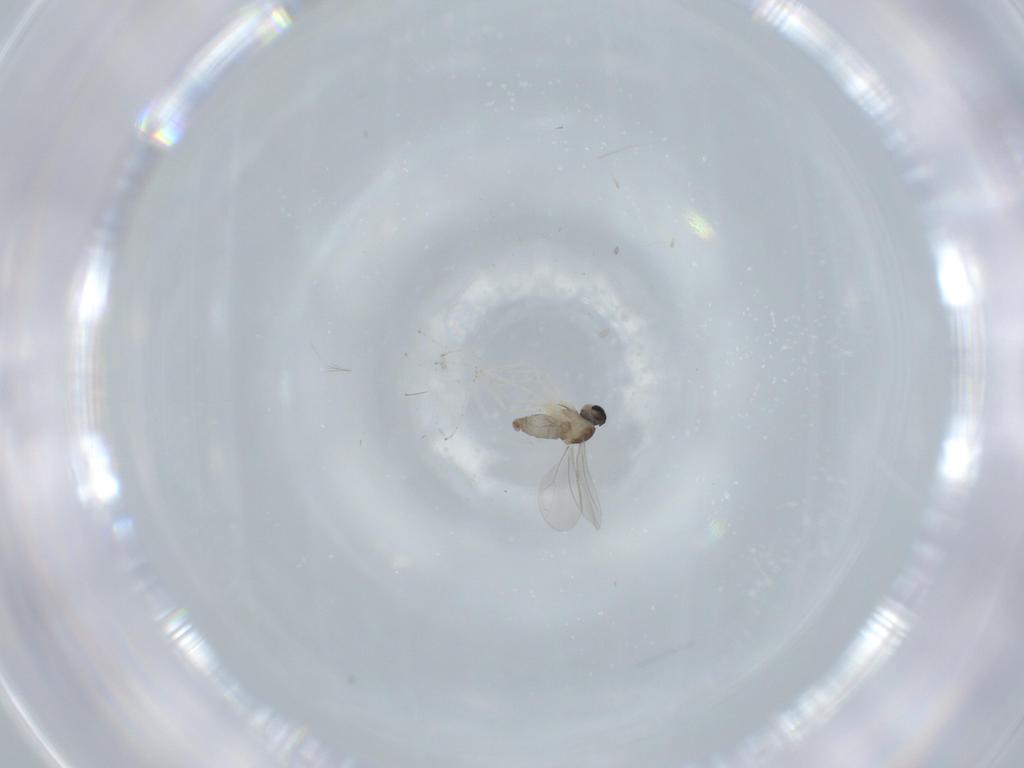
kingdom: Animalia
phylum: Arthropoda
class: Insecta
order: Diptera
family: Cecidomyiidae
